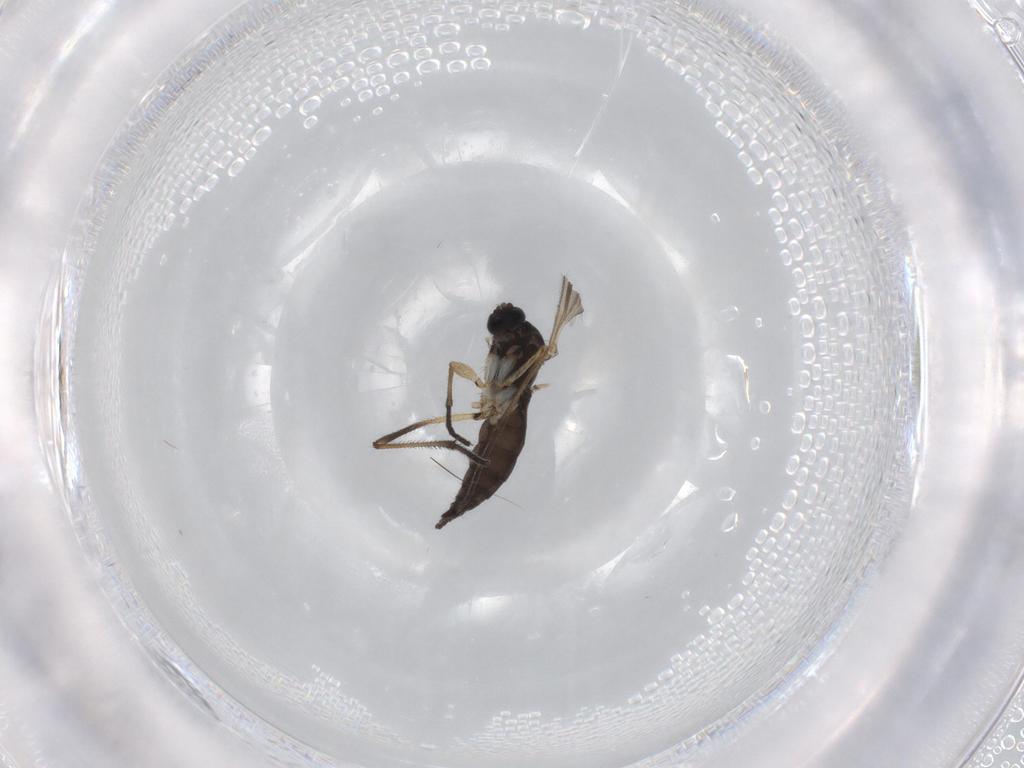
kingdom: Animalia
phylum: Arthropoda
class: Insecta
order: Diptera
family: Sciaridae
